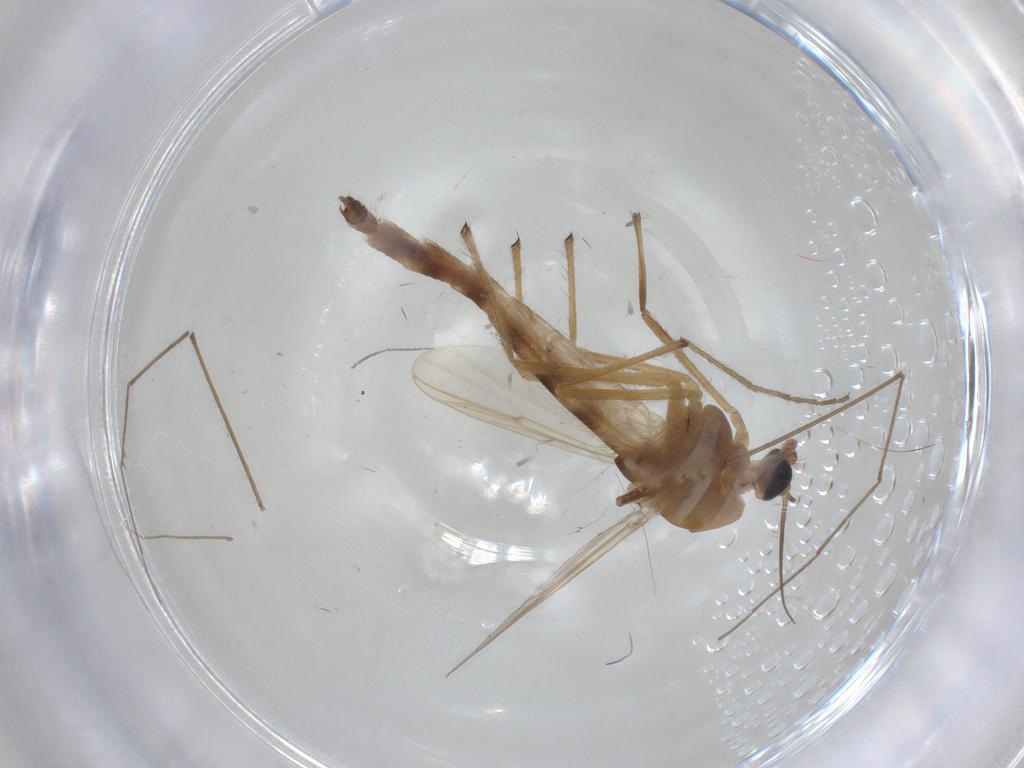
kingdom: Animalia
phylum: Arthropoda
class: Insecta
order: Diptera
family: Chironomidae
